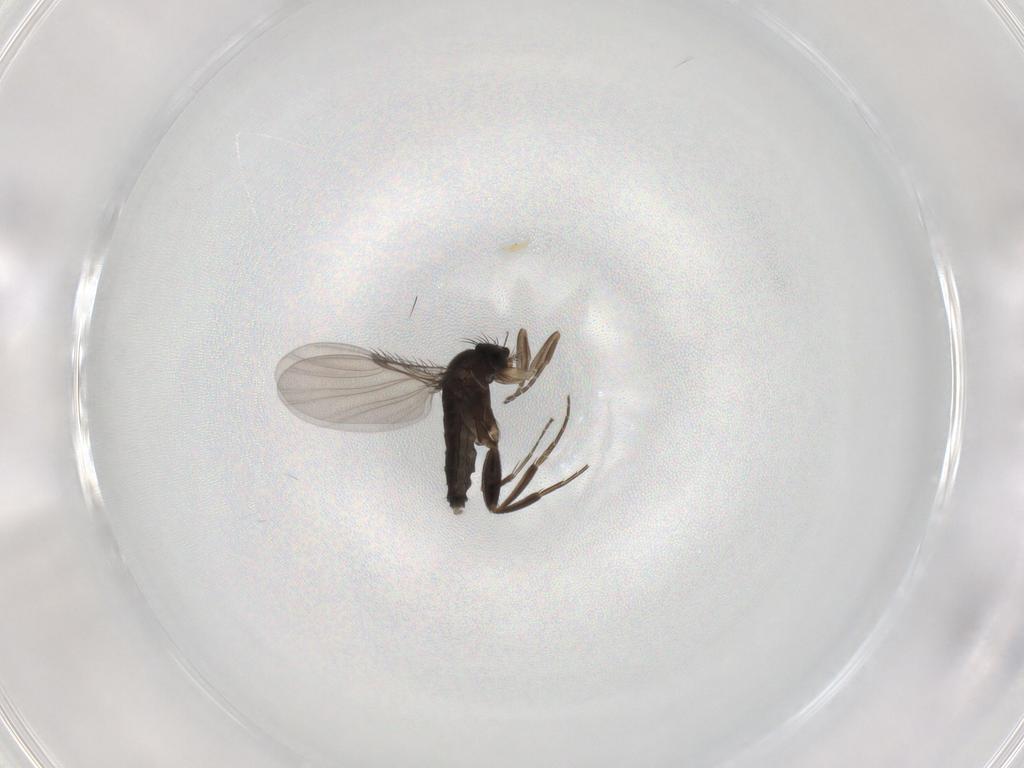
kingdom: Animalia
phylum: Arthropoda
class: Insecta
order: Diptera
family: Phoridae
